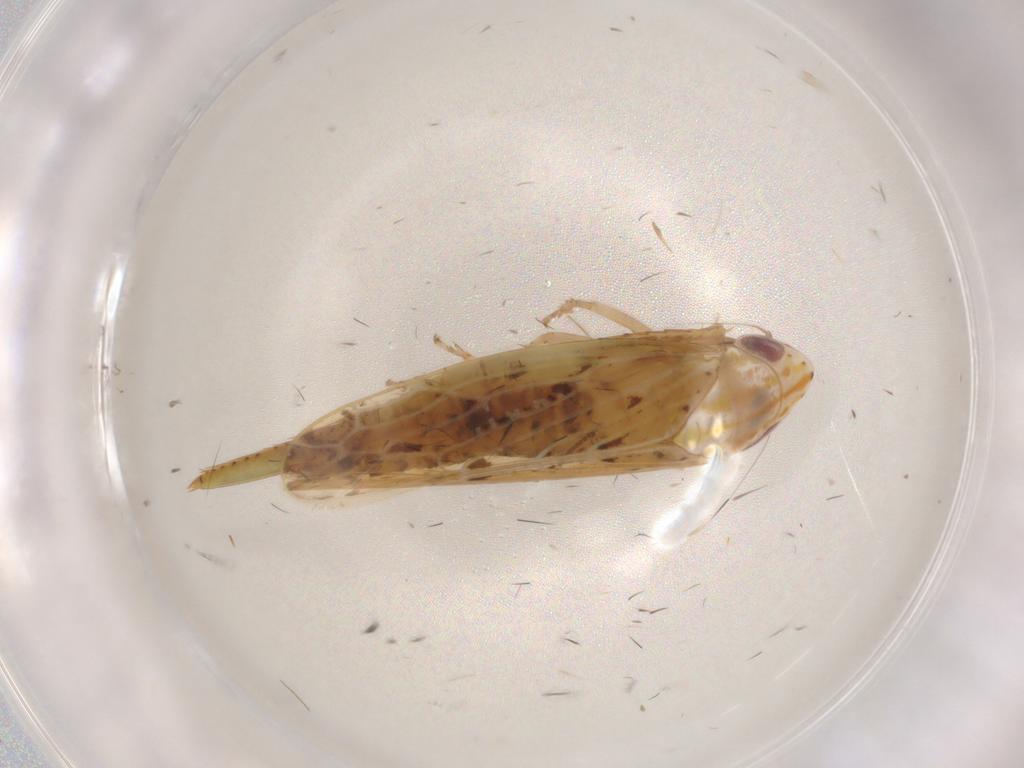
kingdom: Animalia
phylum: Arthropoda
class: Insecta
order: Hemiptera
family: Cicadellidae
